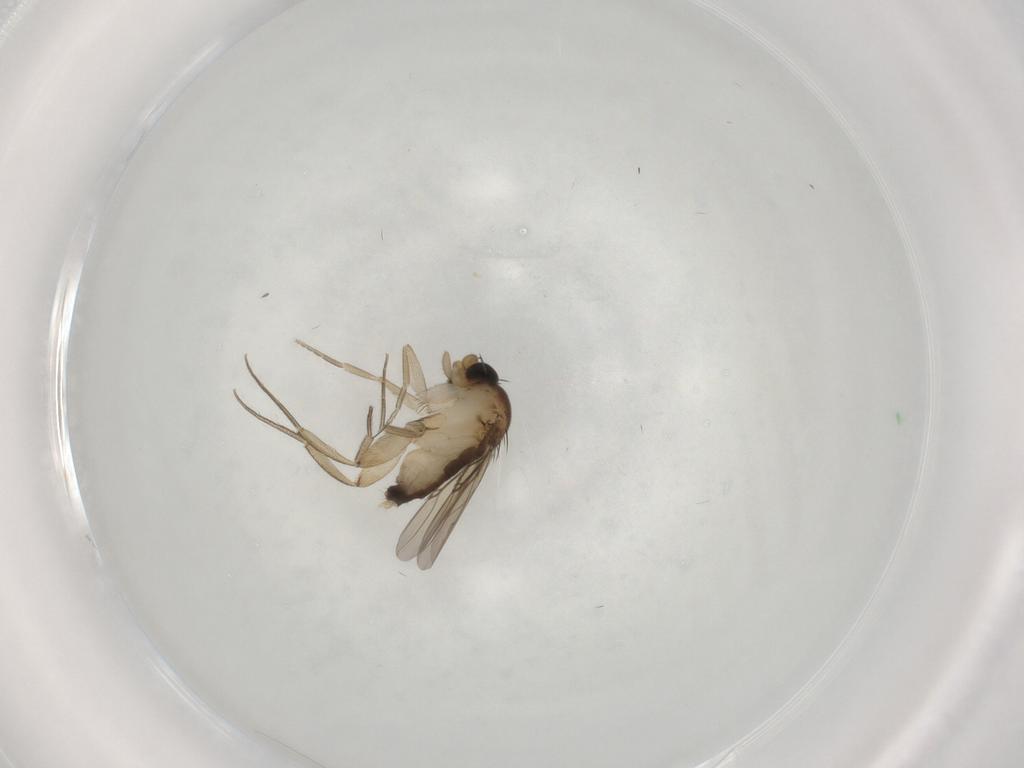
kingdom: Animalia
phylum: Arthropoda
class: Insecta
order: Diptera
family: Phoridae
